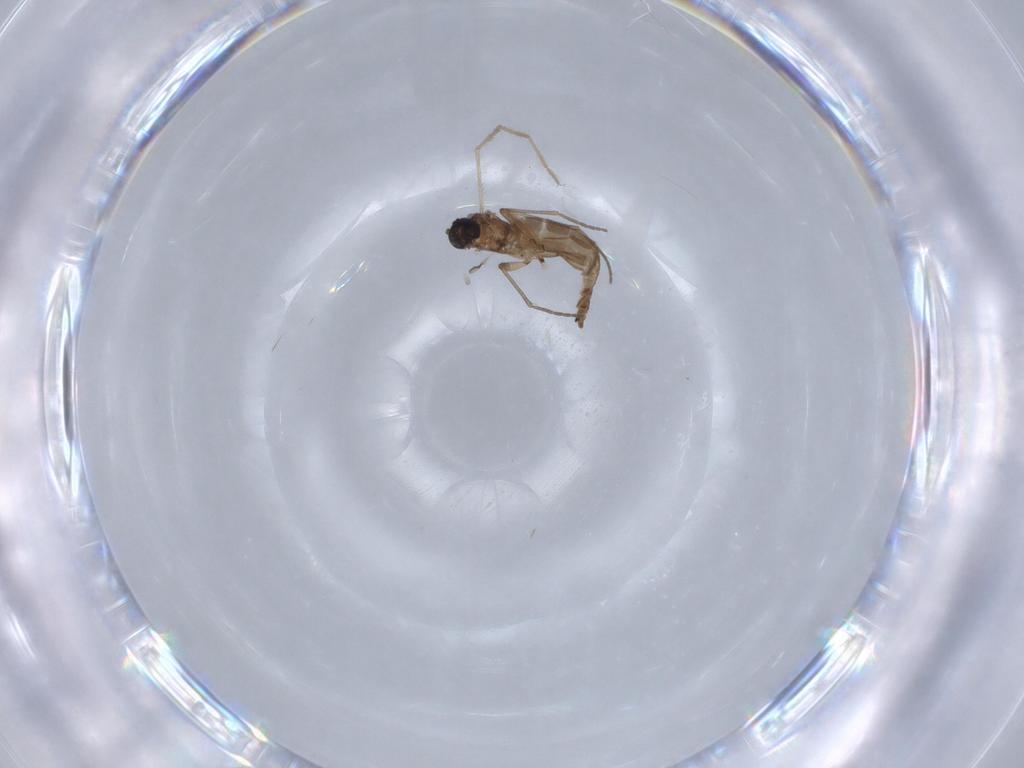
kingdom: Animalia
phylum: Arthropoda
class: Insecta
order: Diptera
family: Sciaridae
